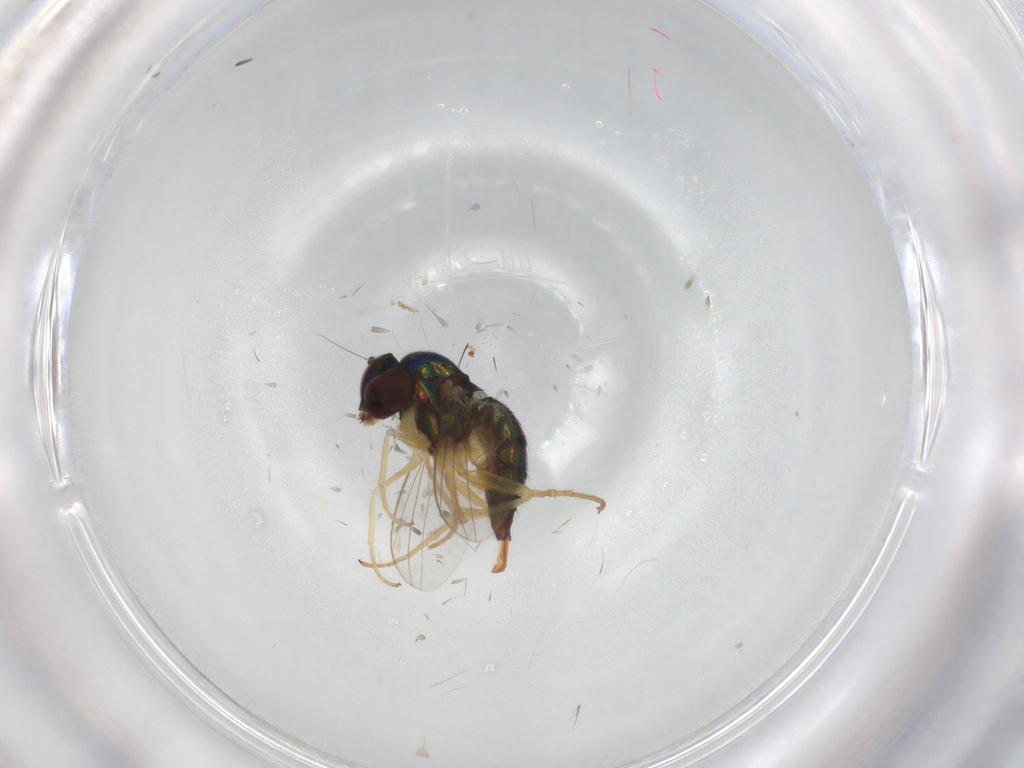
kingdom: Animalia
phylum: Arthropoda
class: Insecta
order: Diptera
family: Dolichopodidae
